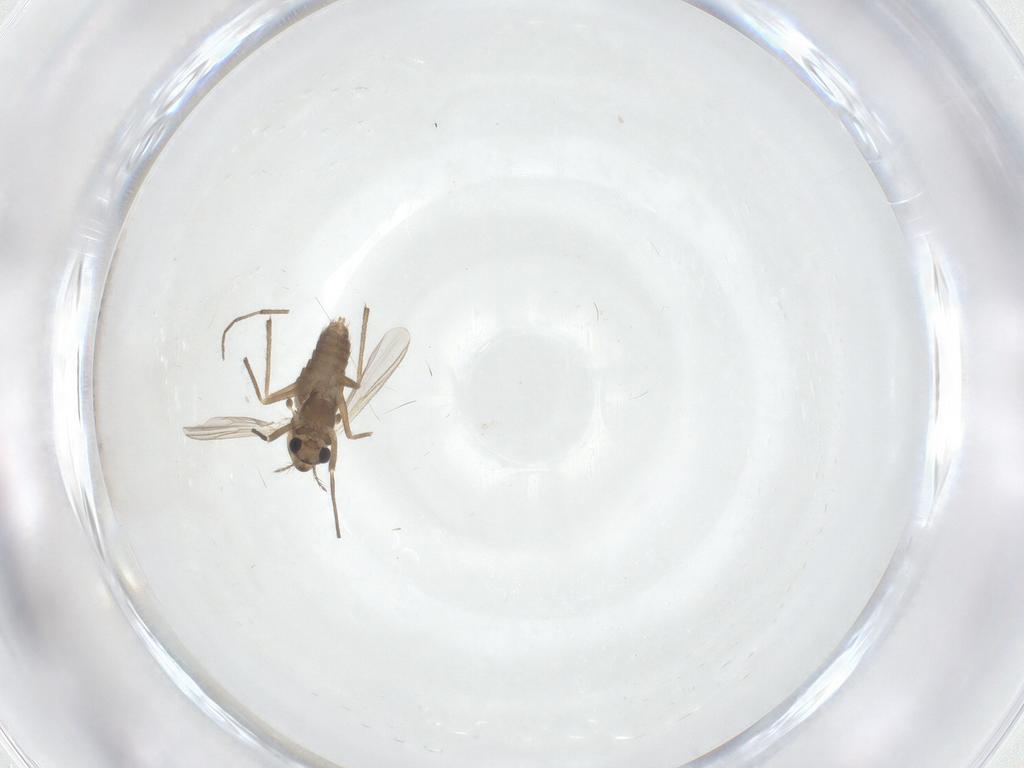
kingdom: Animalia
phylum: Arthropoda
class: Insecta
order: Diptera
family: Chironomidae
